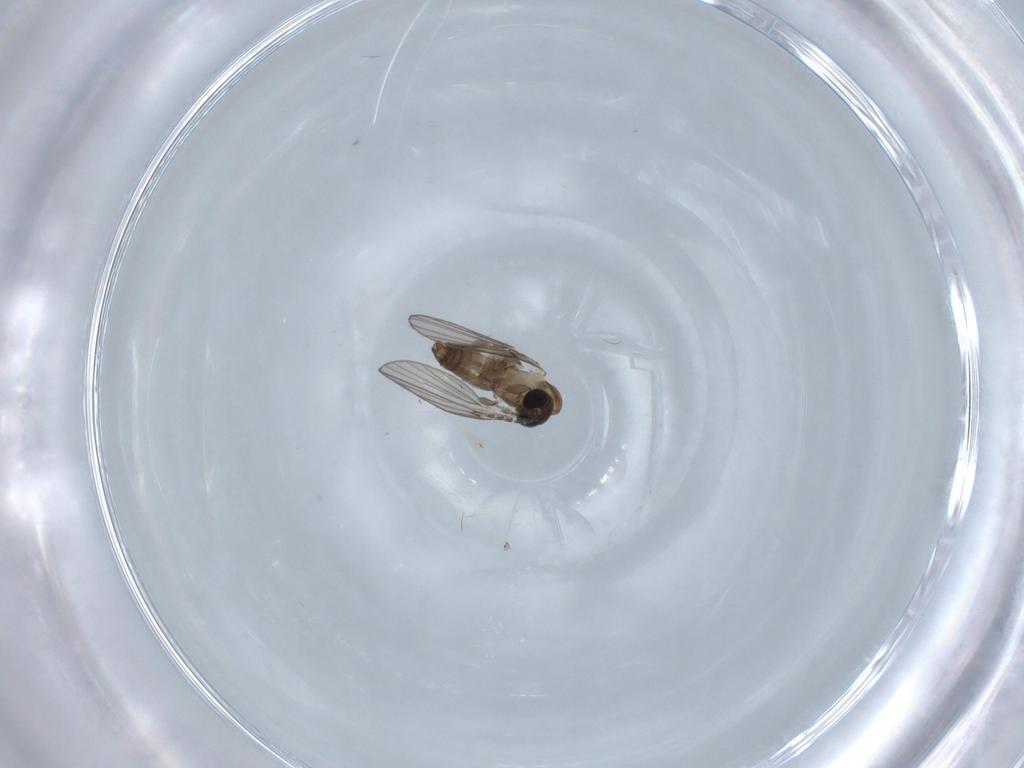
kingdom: Animalia
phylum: Arthropoda
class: Insecta
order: Diptera
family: Psychodidae
